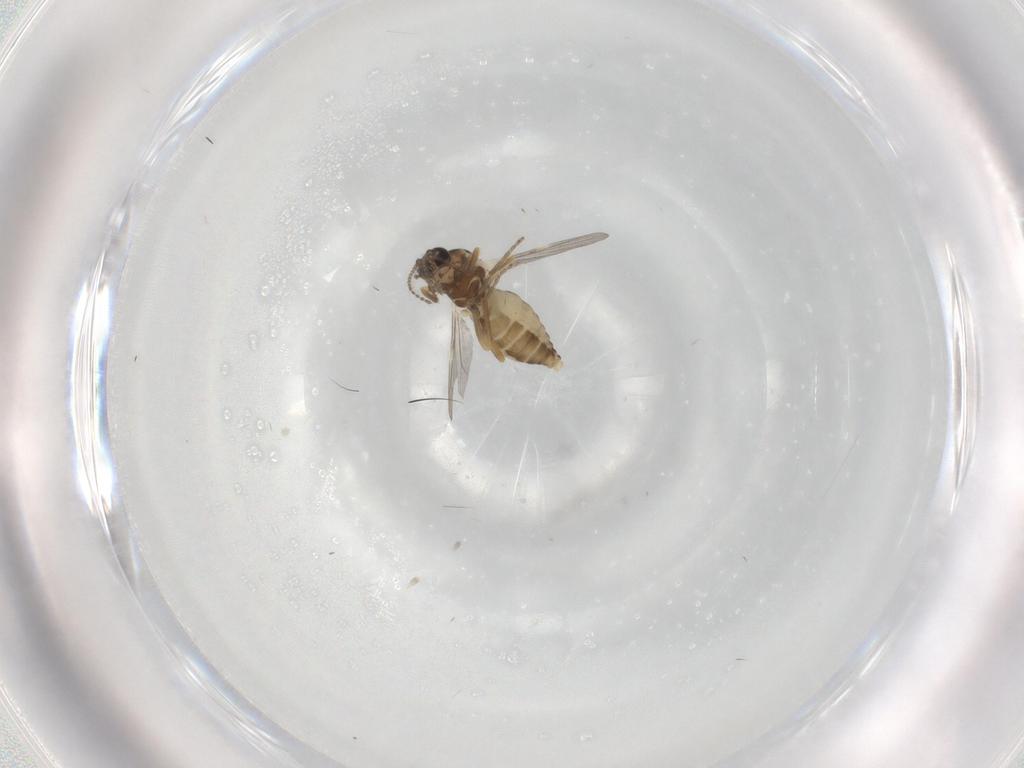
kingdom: Animalia
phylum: Arthropoda
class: Insecta
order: Diptera
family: Ceratopogonidae
